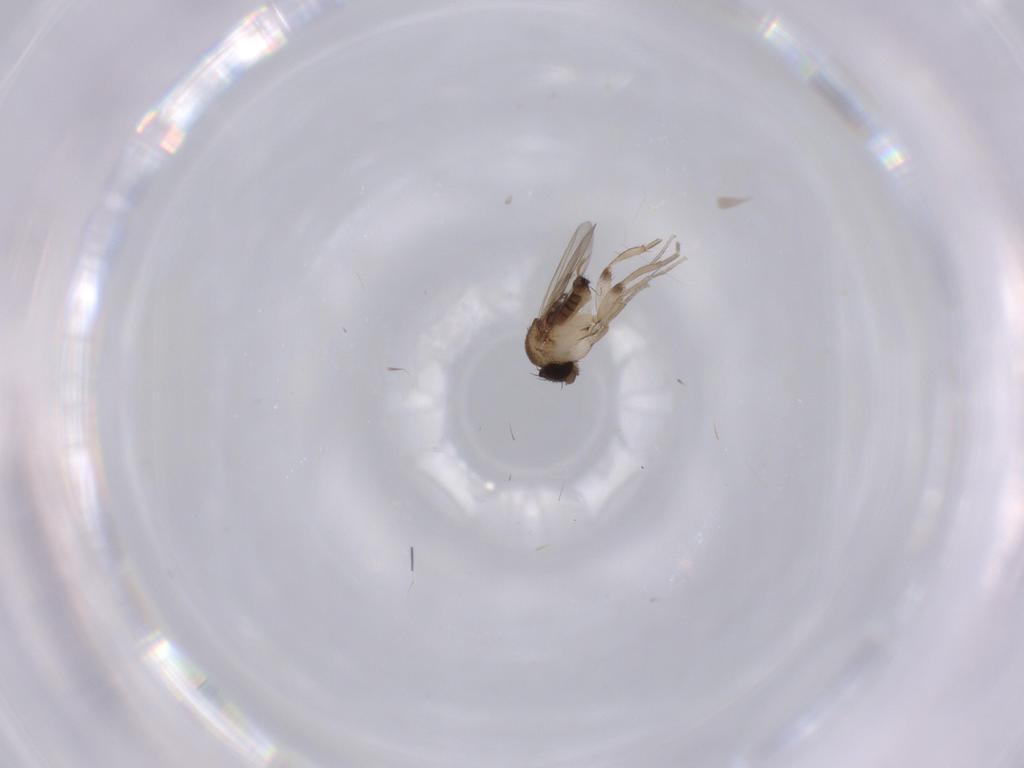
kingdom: Animalia
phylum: Arthropoda
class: Insecta
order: Diptera
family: Phoridae
